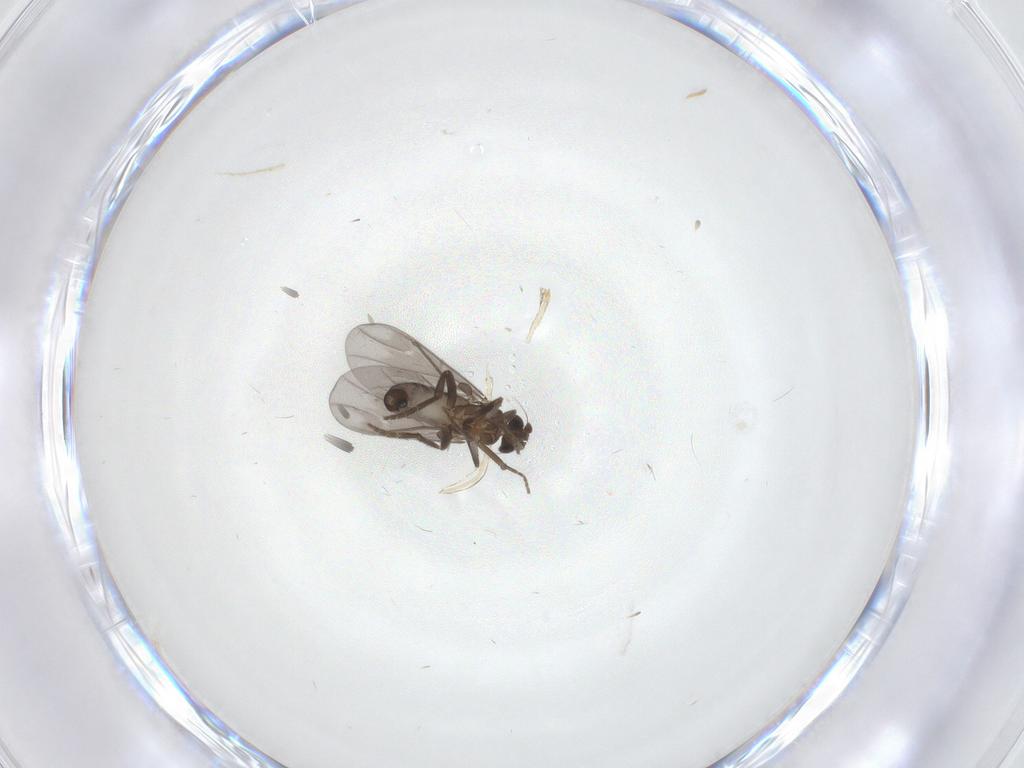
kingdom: Animalia
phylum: Arthropoda
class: Insecta
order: Diptera
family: Phoridae
